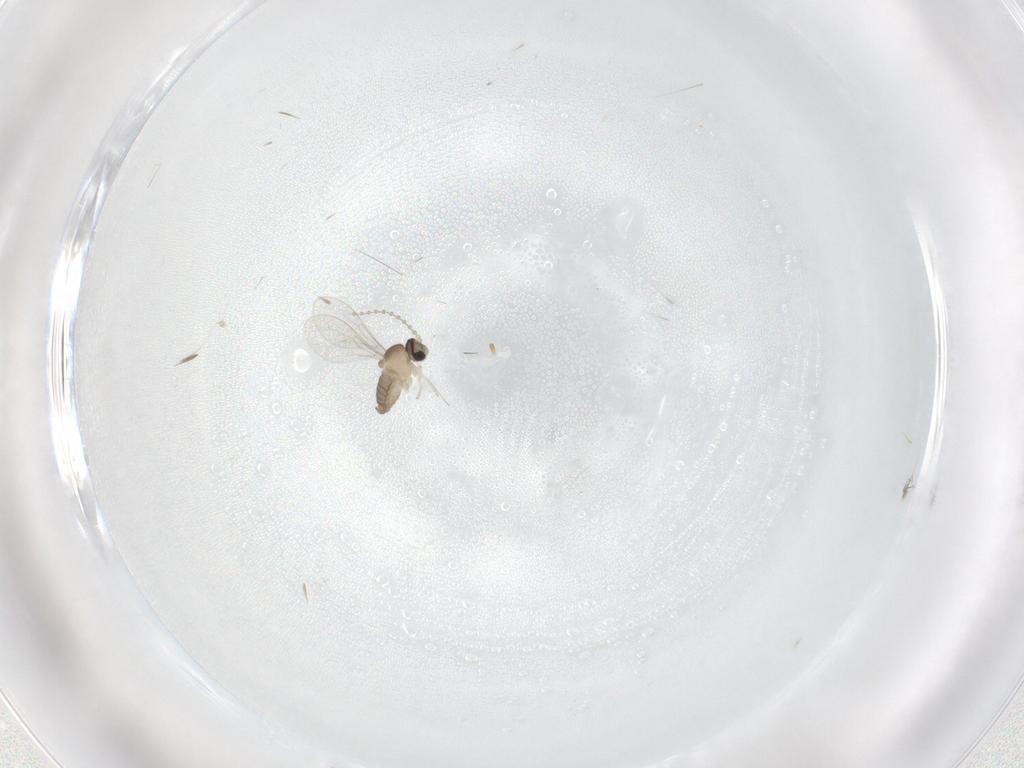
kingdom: Animalia
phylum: Arthropoda
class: Insecta
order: Diptera
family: Cecidomyiidae
